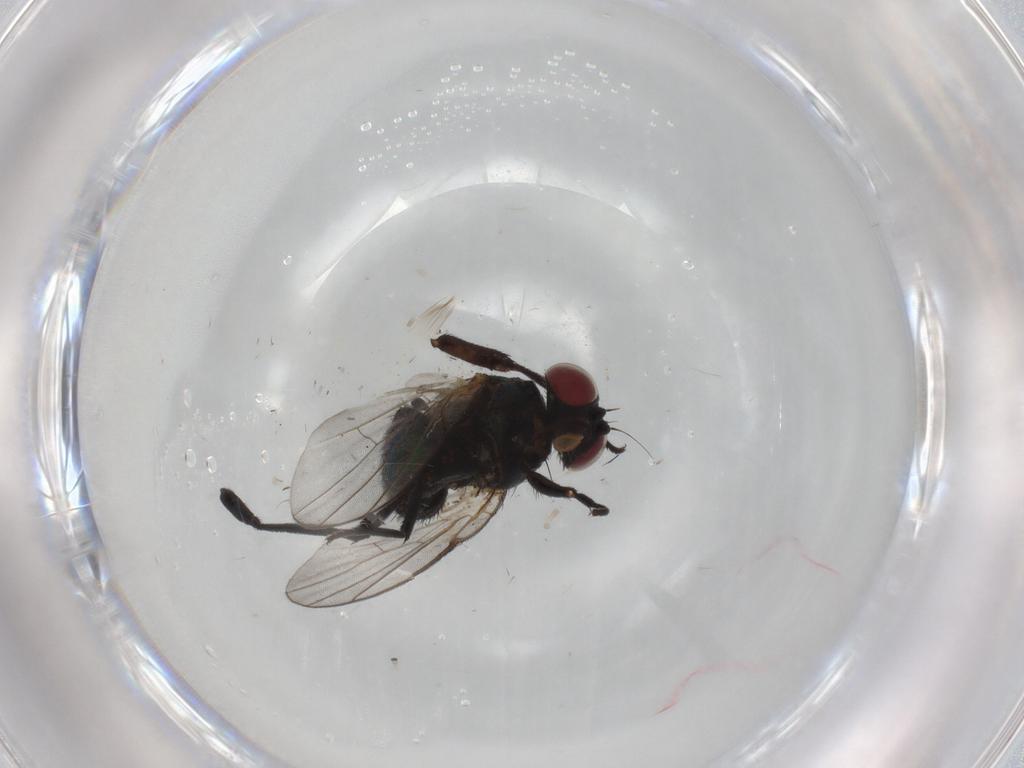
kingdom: Animalia
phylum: Arthropoda
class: Insecta
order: Diptera
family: Agromyzidae
